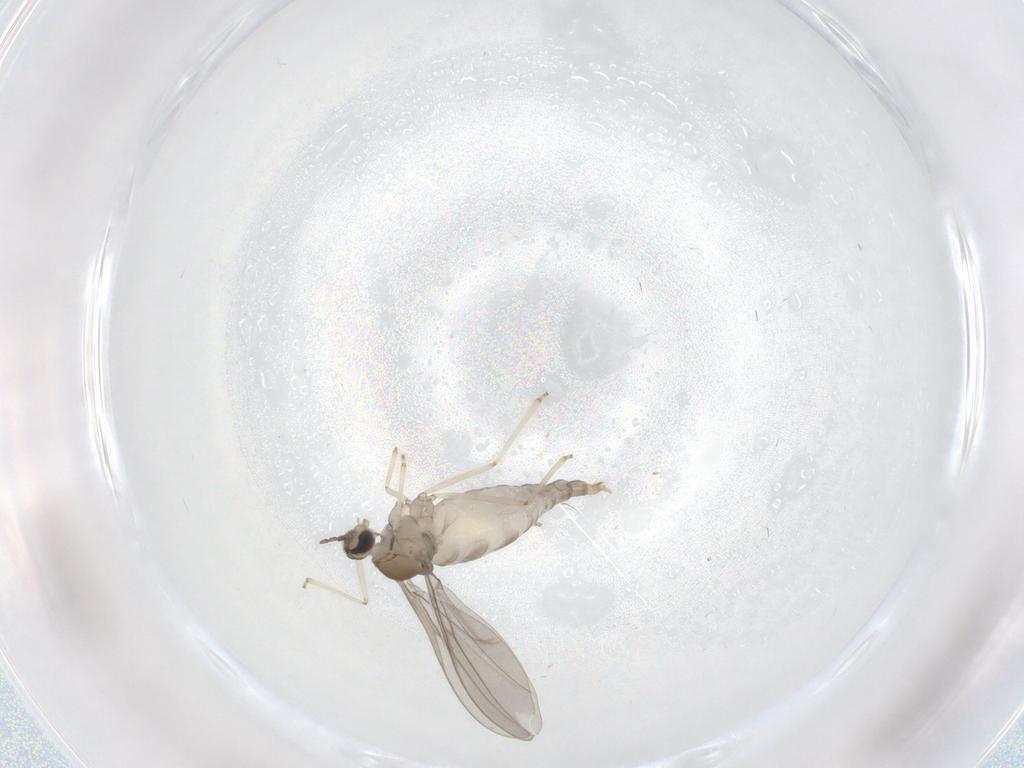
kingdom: Animalia
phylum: Arthropoda
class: Insecta
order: Diptera
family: Cecidomyiidae
